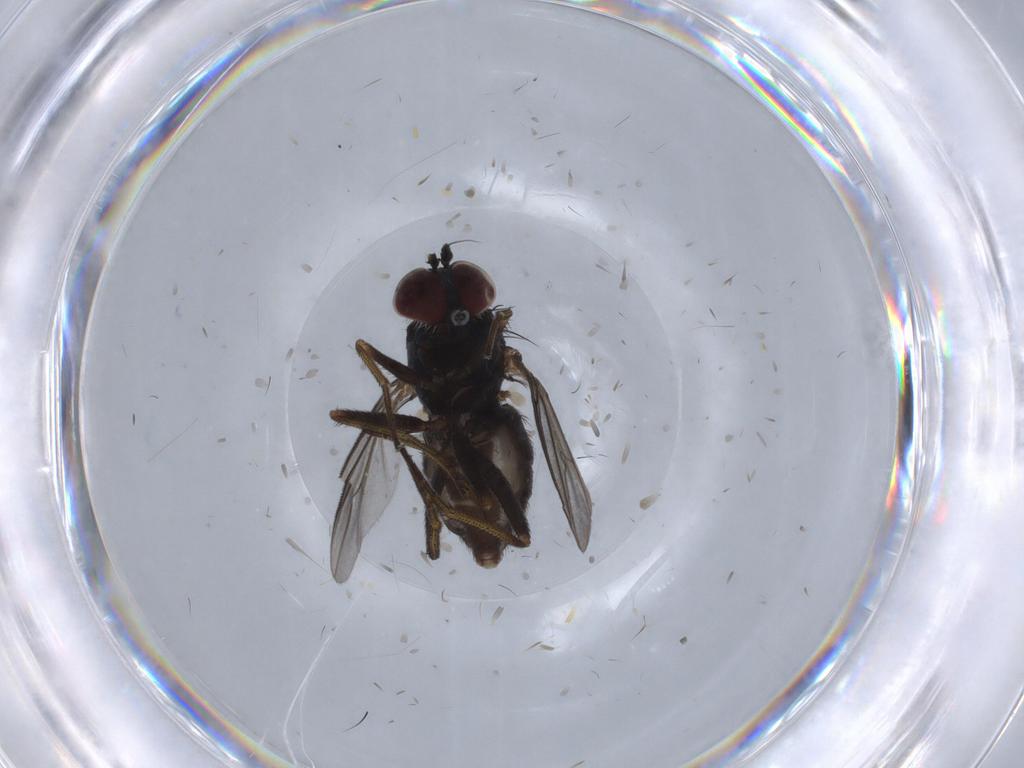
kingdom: Animalia
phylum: Arthropoda
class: Insecta
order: Diptera
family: Dolichopodidae
